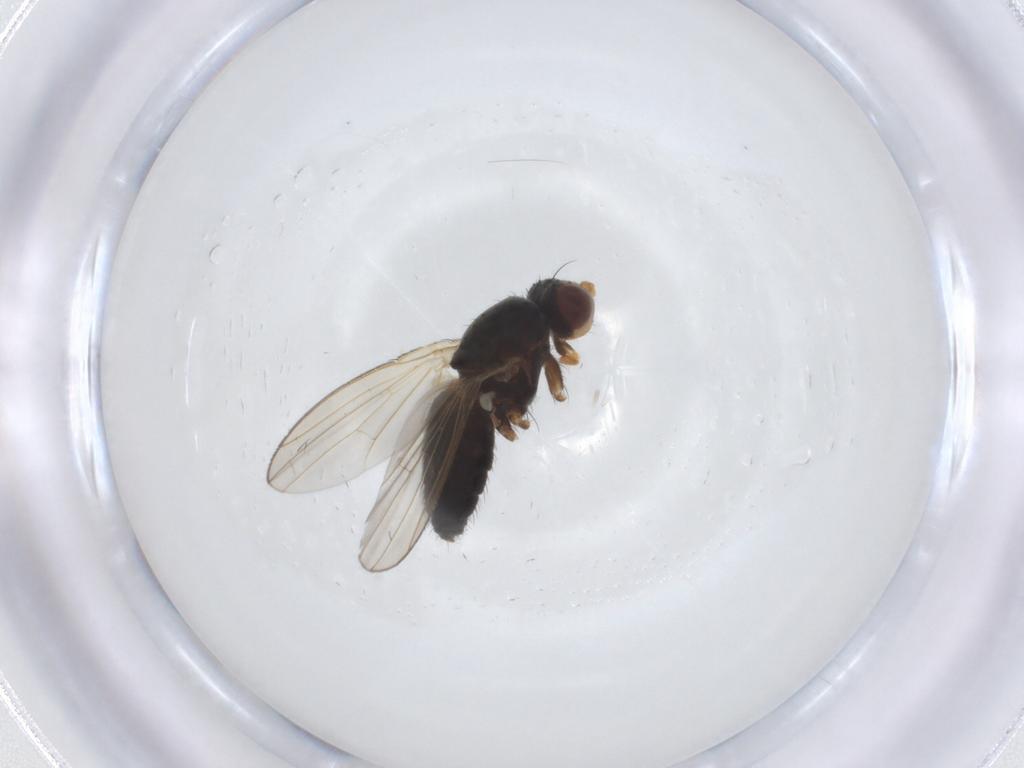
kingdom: Animalia
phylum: Arthropoda
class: Insecta
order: Diptera
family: Heleomyzidae
